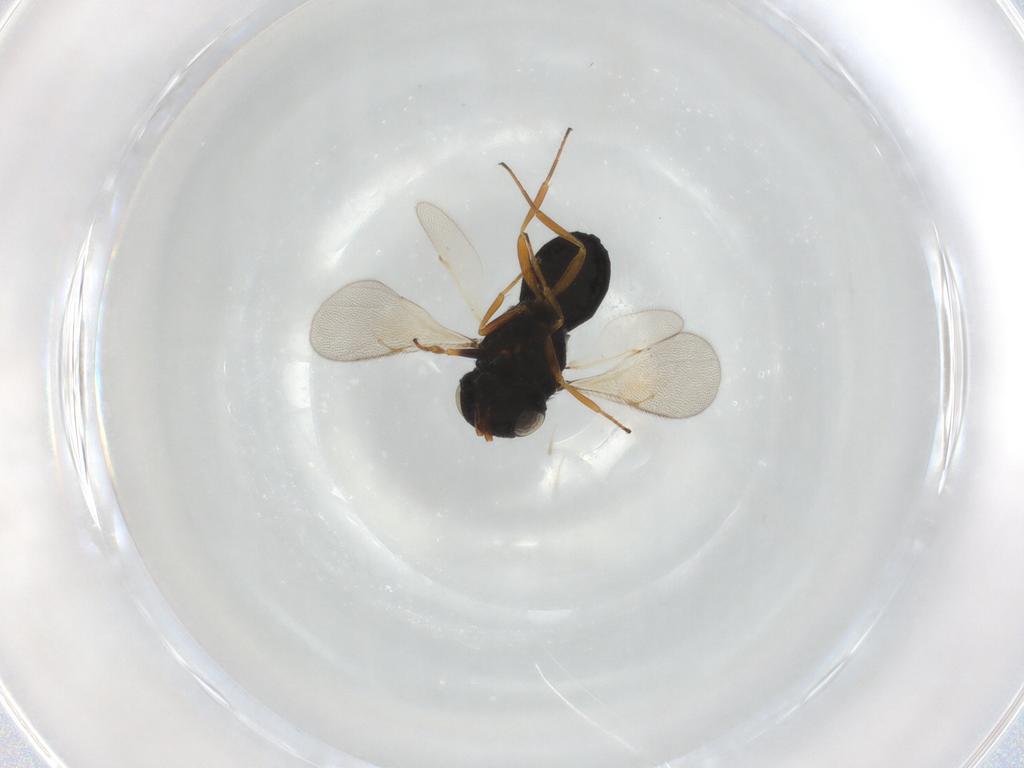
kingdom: Animalia
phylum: Arthropoda
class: Insecta
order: Hymenoptera
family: Scelionidae
